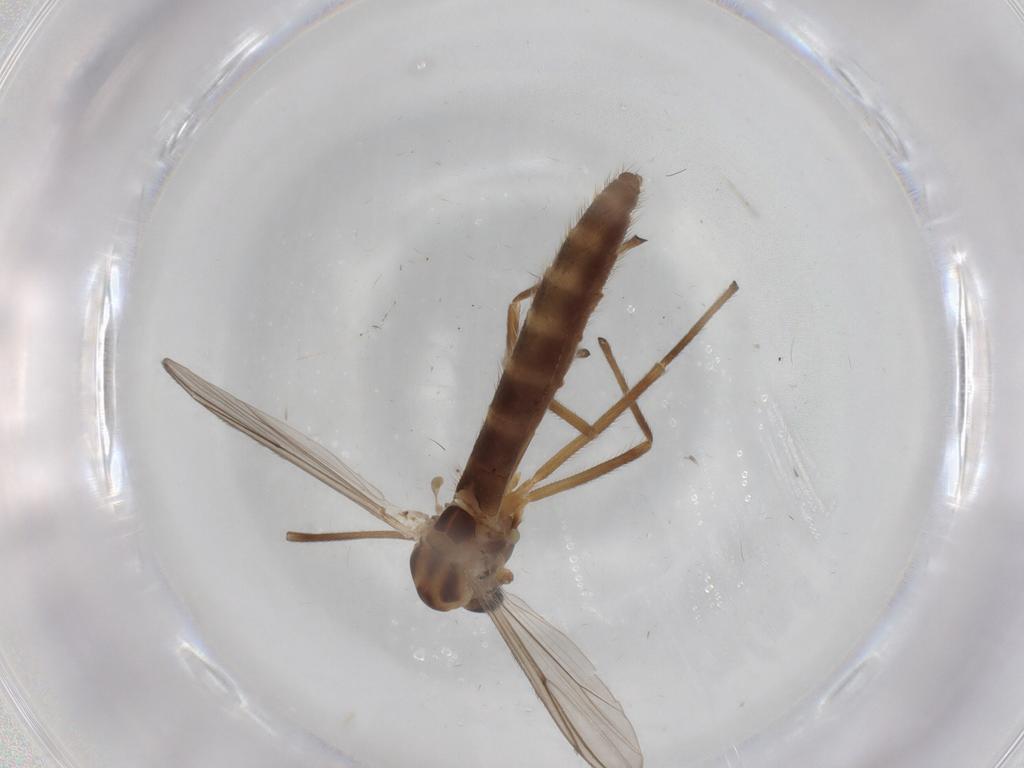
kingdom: Animalia
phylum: Arthropoda
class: Insecta
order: Diptera
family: Chironomidae
